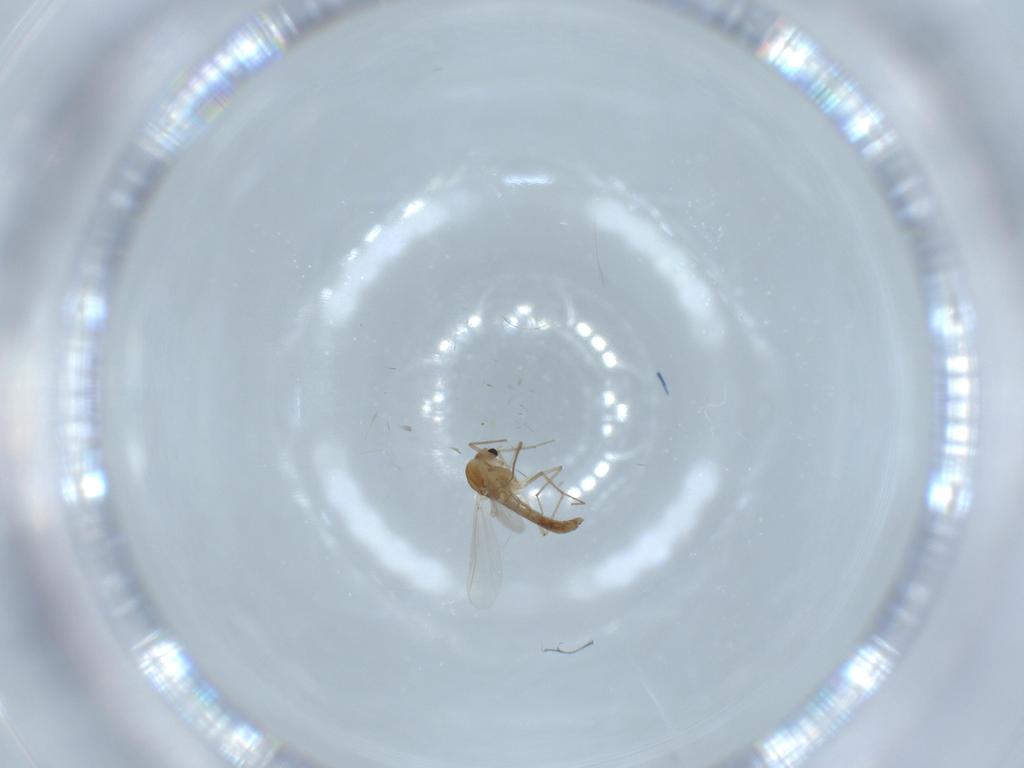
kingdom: Animalia
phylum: Arthropoda
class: Insecta
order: Diptera
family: Chironomidae
